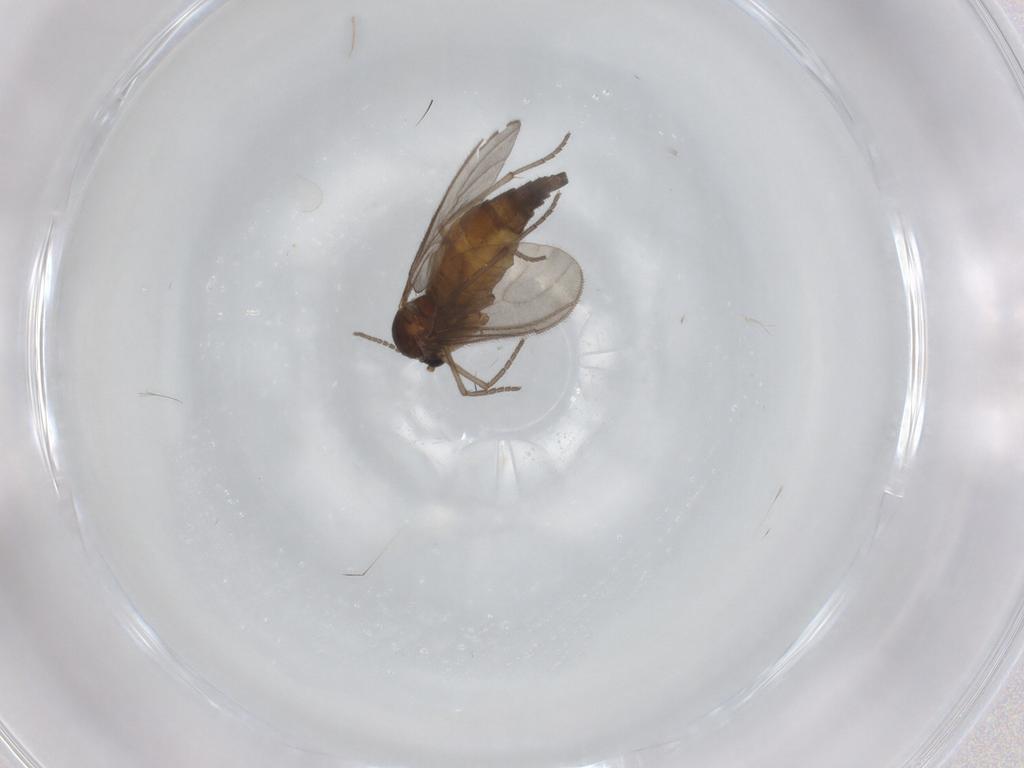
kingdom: Animalia
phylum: Arthropoda
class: Insecta
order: Diptera
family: Sciaridae
